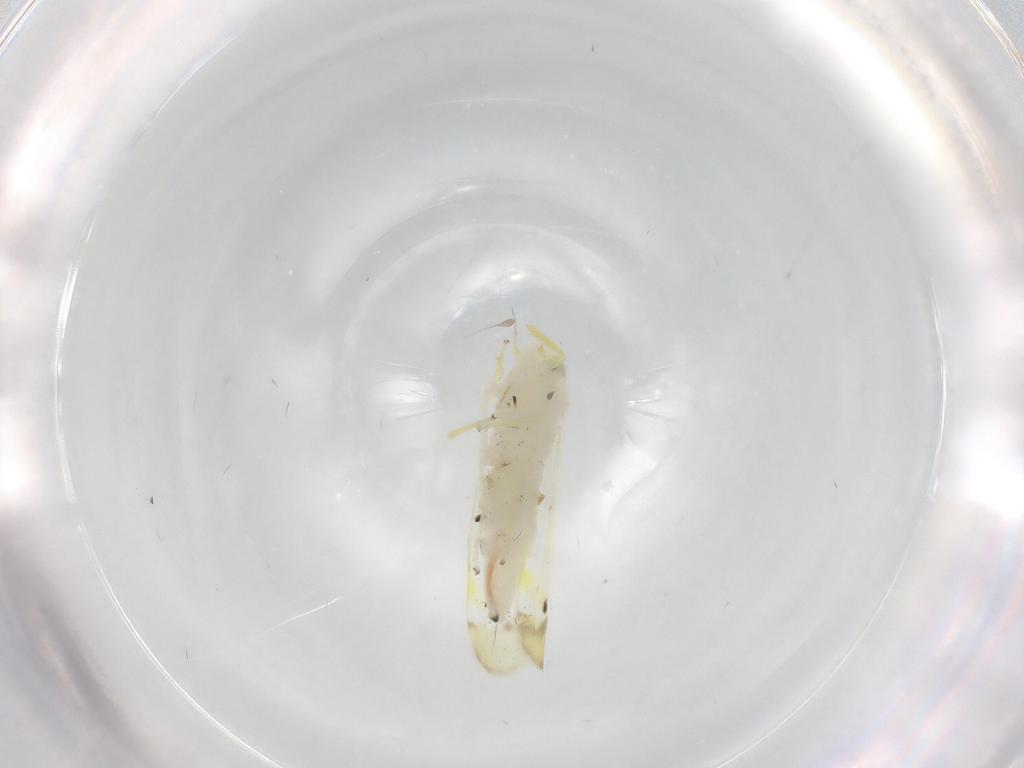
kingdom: Animalia
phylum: Arthropoda
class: Insecta
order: Hemiptera
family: Cicadellidae
